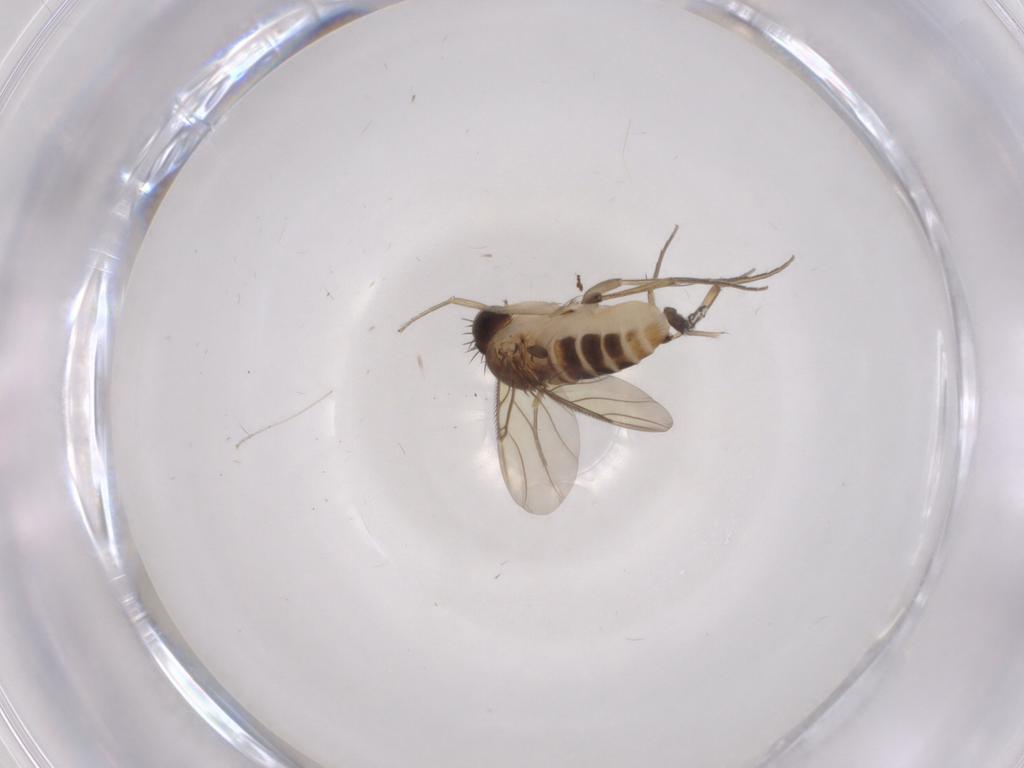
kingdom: Animalia
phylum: Arthropoda
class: Insecta
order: Diptera
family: Phoridae
